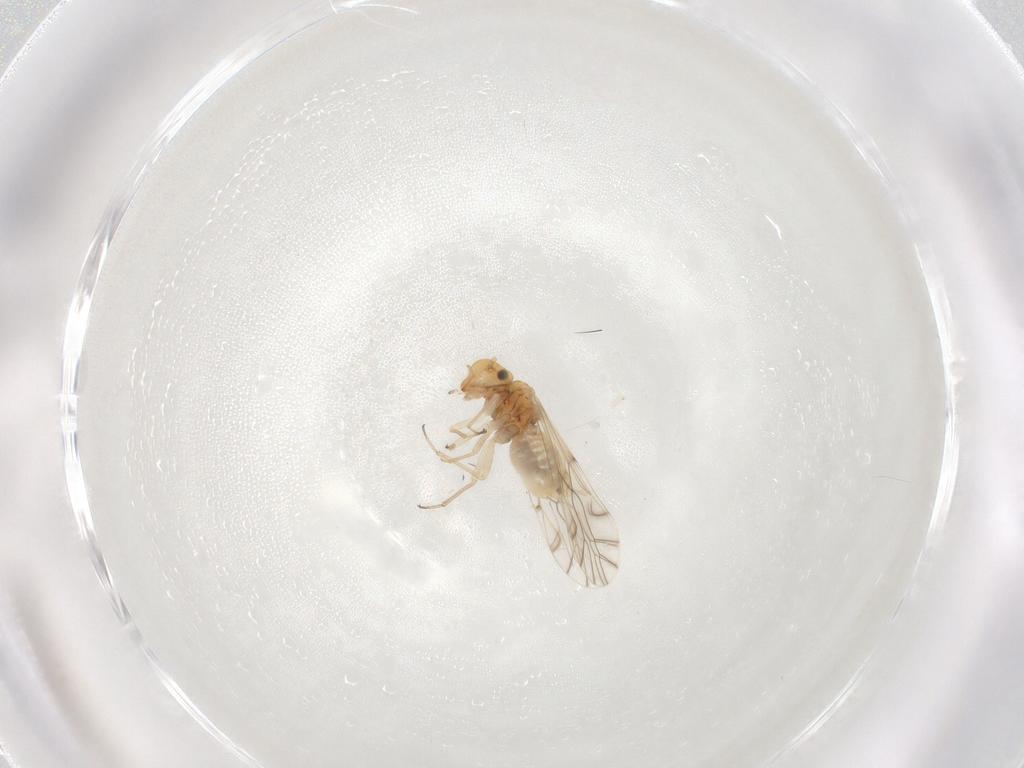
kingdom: Animalia
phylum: Arthropoda
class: Insecta
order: Psocodea
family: Lachesillidae
